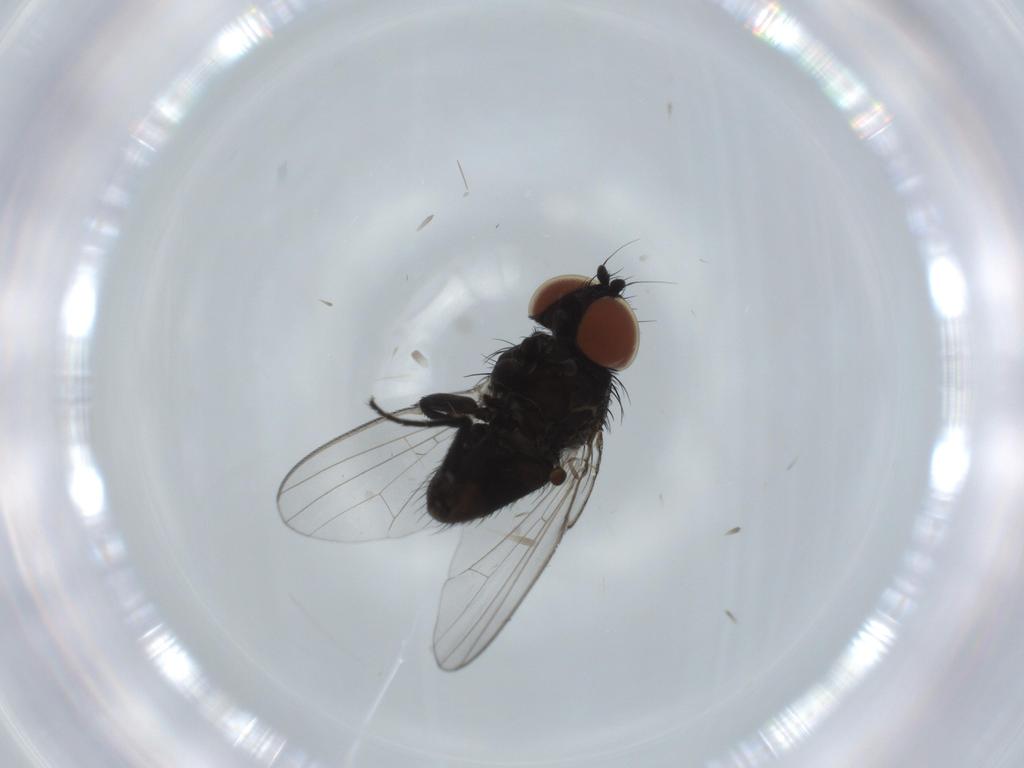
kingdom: Animalia
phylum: Arthropoda
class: Insecta
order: Diptera
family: Milichiidae
